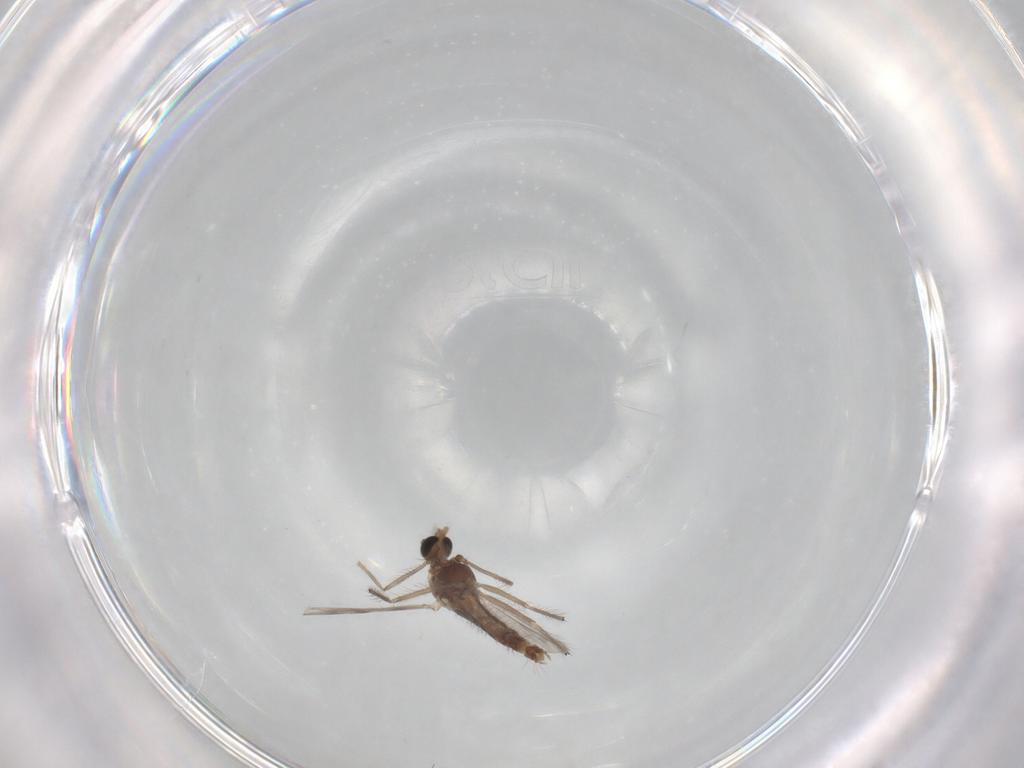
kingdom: Animalia
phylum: Arthropoda
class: Insecta
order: Diptera
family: Chironomidae
